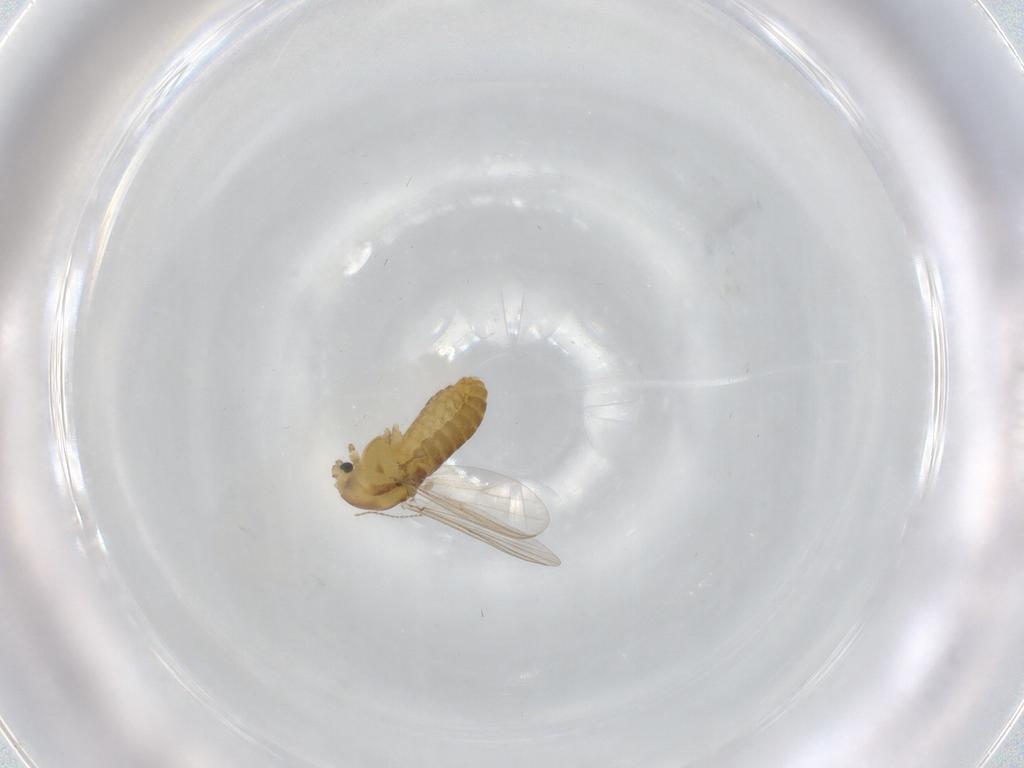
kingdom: Animalia
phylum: Arthropoda
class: Insecta
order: Diptera
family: Chironomidae
